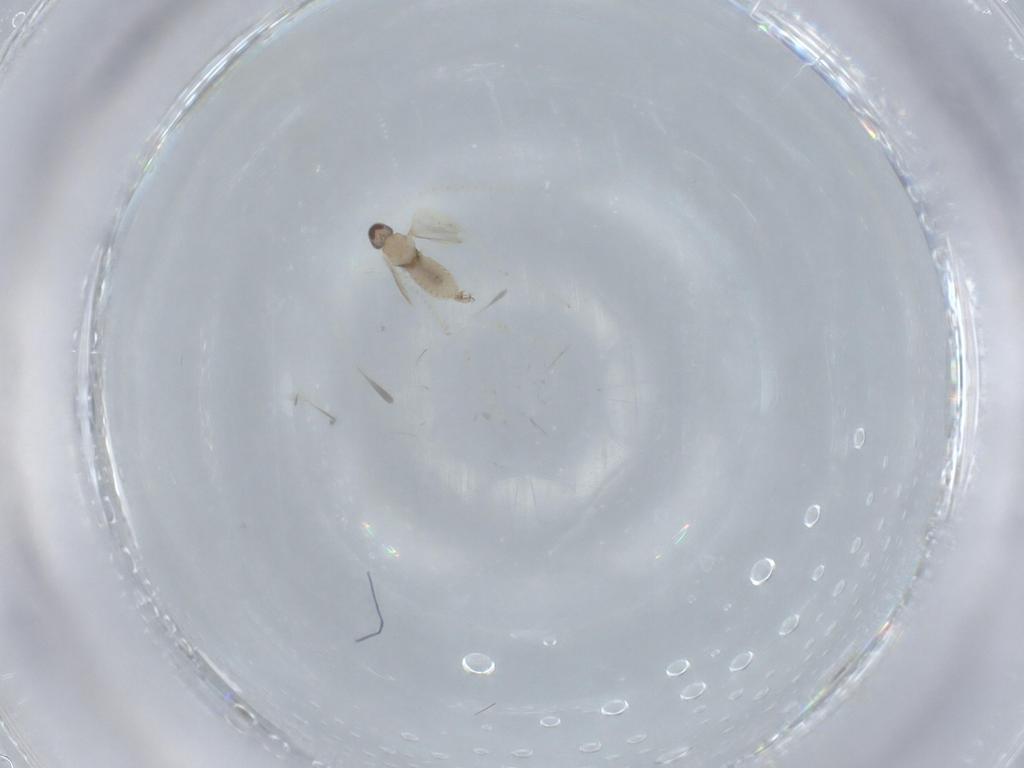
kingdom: Animalia
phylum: Arthropoda
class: Insecta
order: Diptera
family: Cecidomyiidae
